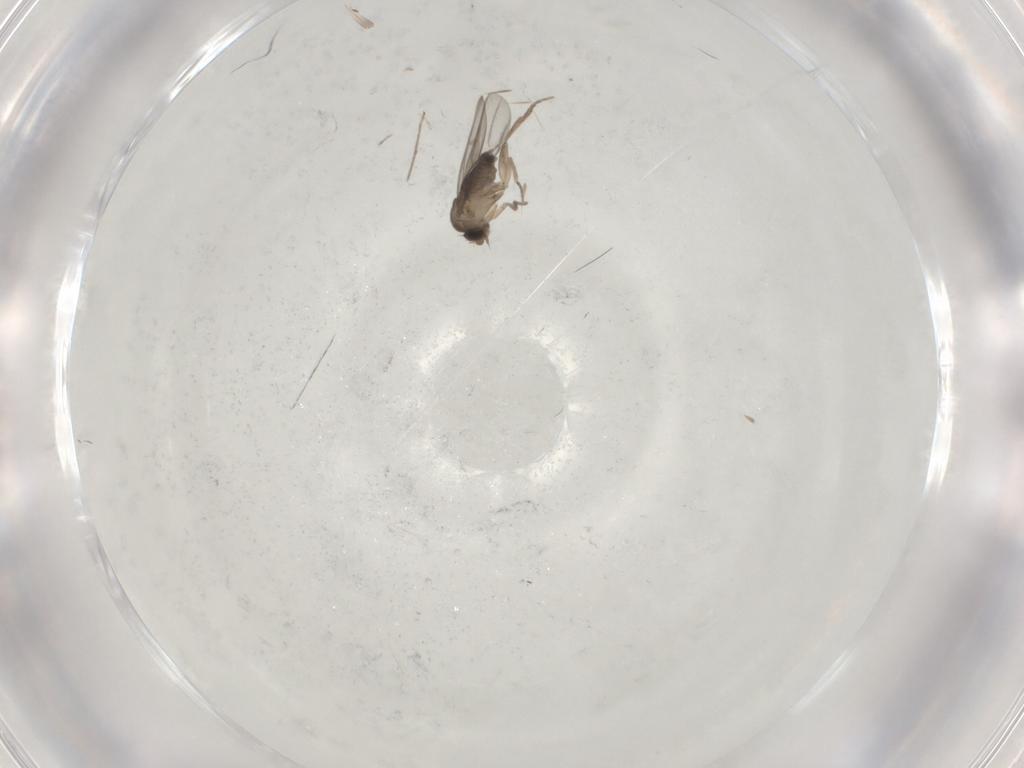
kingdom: Animalia
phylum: Arthropoda
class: Insecta
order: Diptera
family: Phoridae
